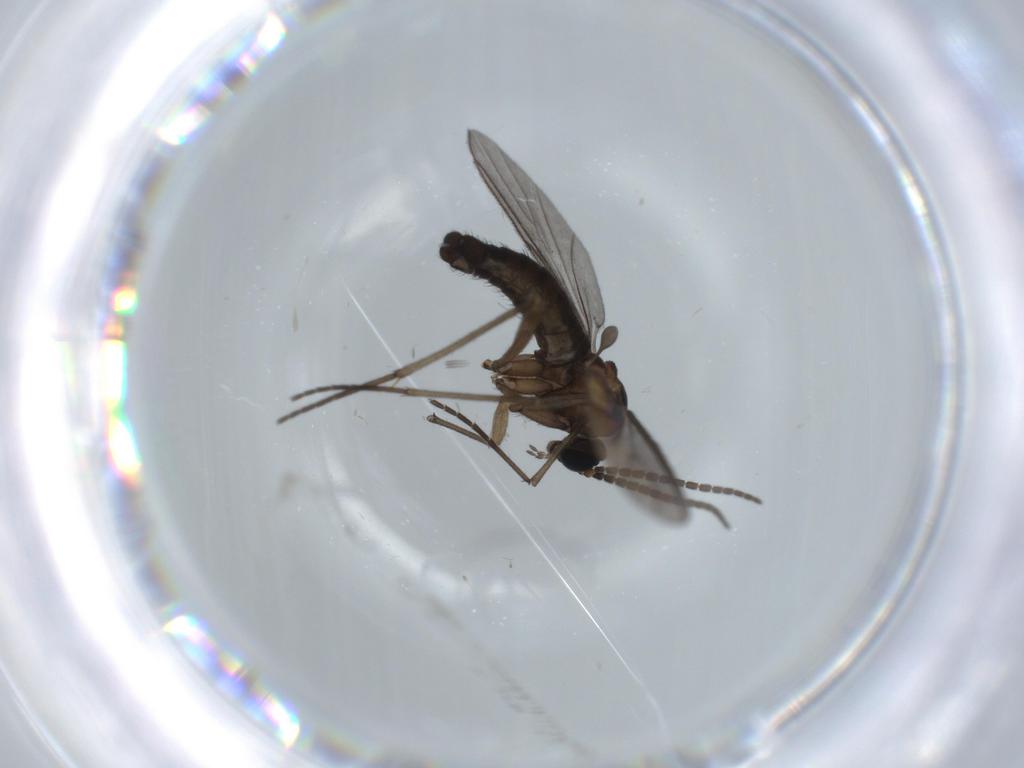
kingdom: Animalia
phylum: Arthropoda
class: Insecta
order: Diptera
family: Sciaridae
